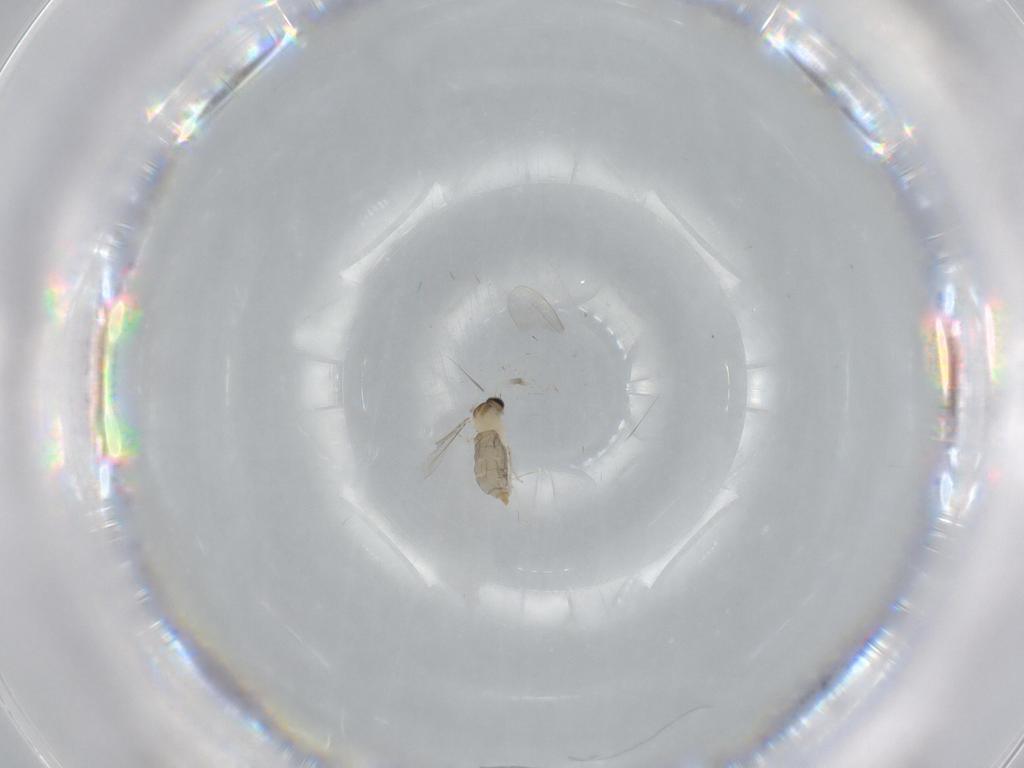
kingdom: Animalia
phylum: Arthropoda
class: Insecta
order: Diptera
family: Cecidomyiidae
